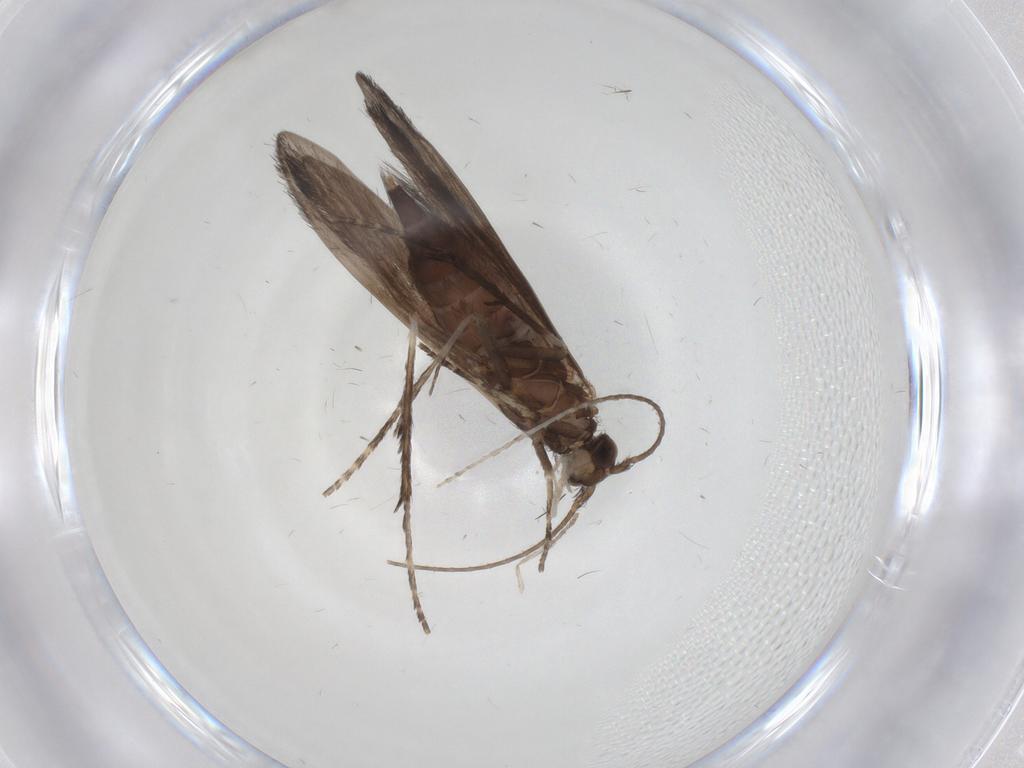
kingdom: Animalia
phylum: Arthropoda
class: Insecta
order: Trichoptera
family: Xiphocentronidae
